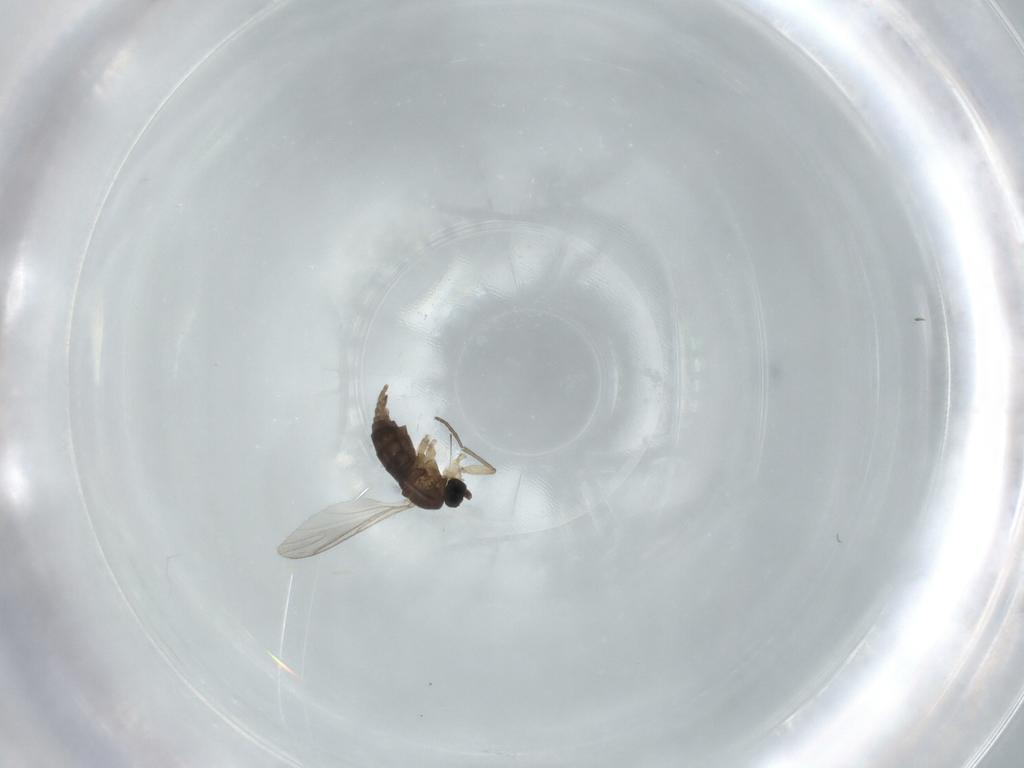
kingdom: Animalia
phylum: Arthropoda
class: Insecta
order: Diptera
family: Sciaridae
